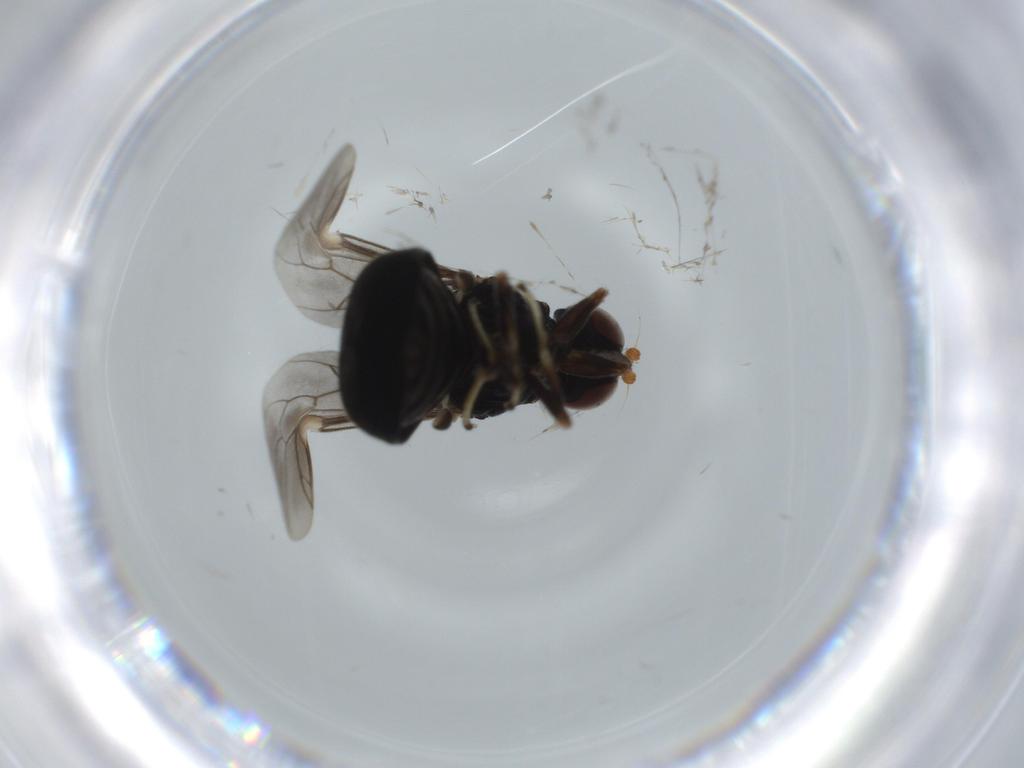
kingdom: Animalia
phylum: Arthropoda
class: Insecta
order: Diptera
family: Stratiomyidae
